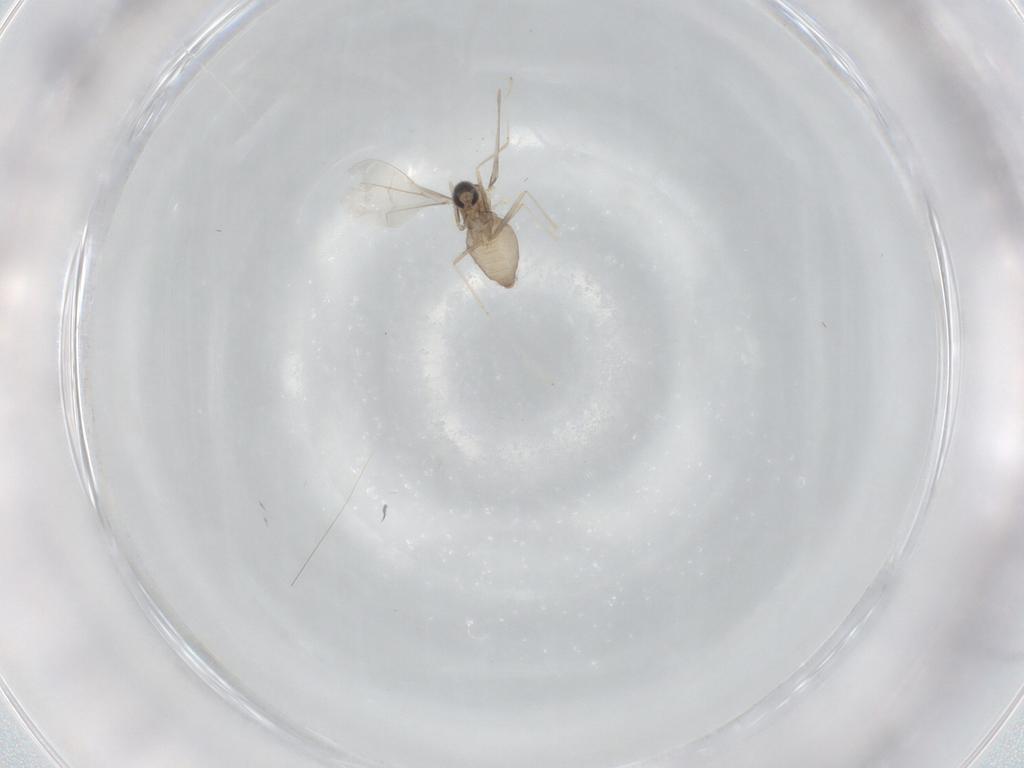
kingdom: Animalia
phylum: Arthropoda
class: Insecta
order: Diptera
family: Cecidomyiidae
